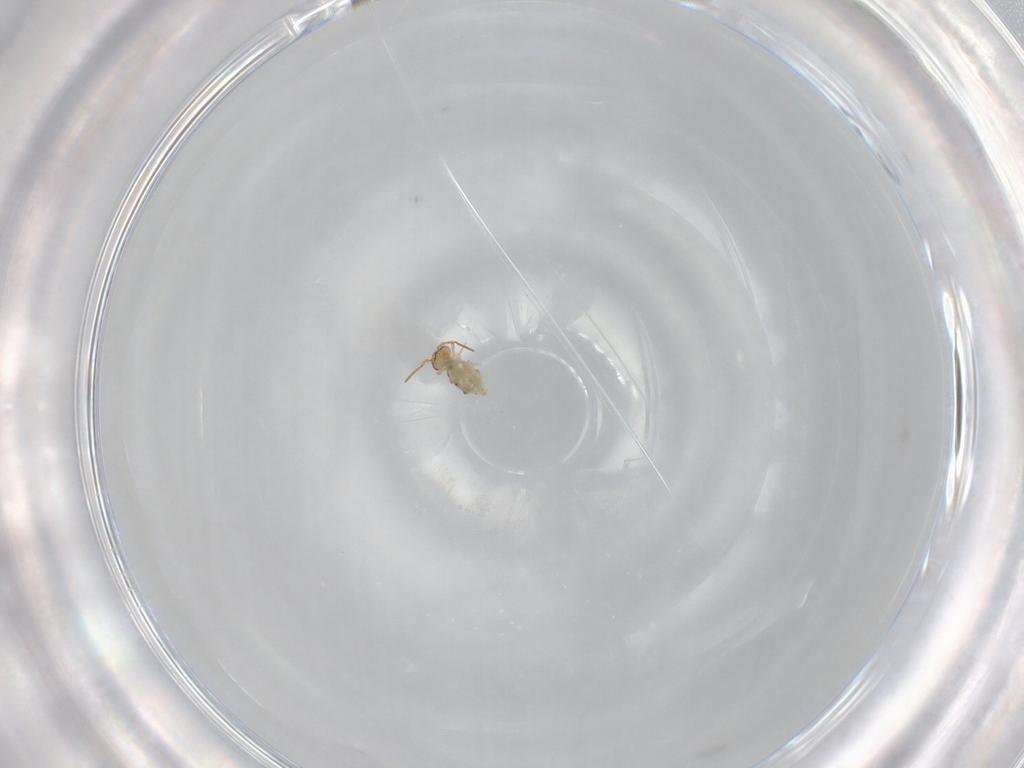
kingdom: Animalia
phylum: Arthropoda
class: Collembola
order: Symphypleona
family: Bourletiellidae
